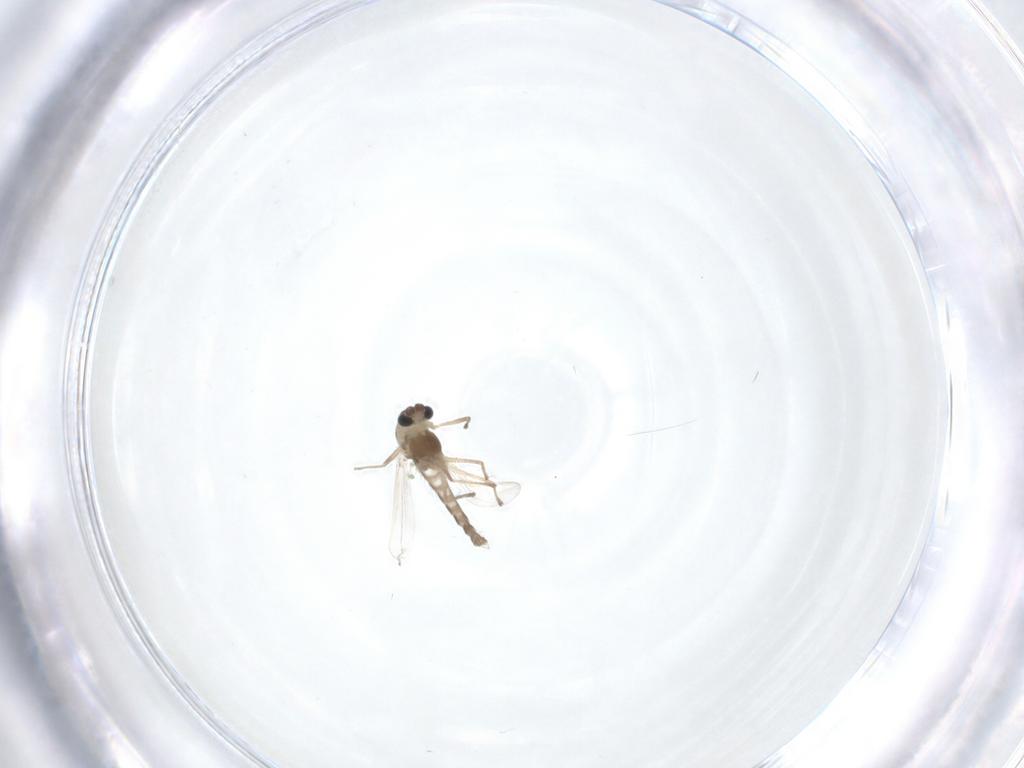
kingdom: Animalia
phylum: Arthropoda
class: Insecta
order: Diptera
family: Chironomidae
